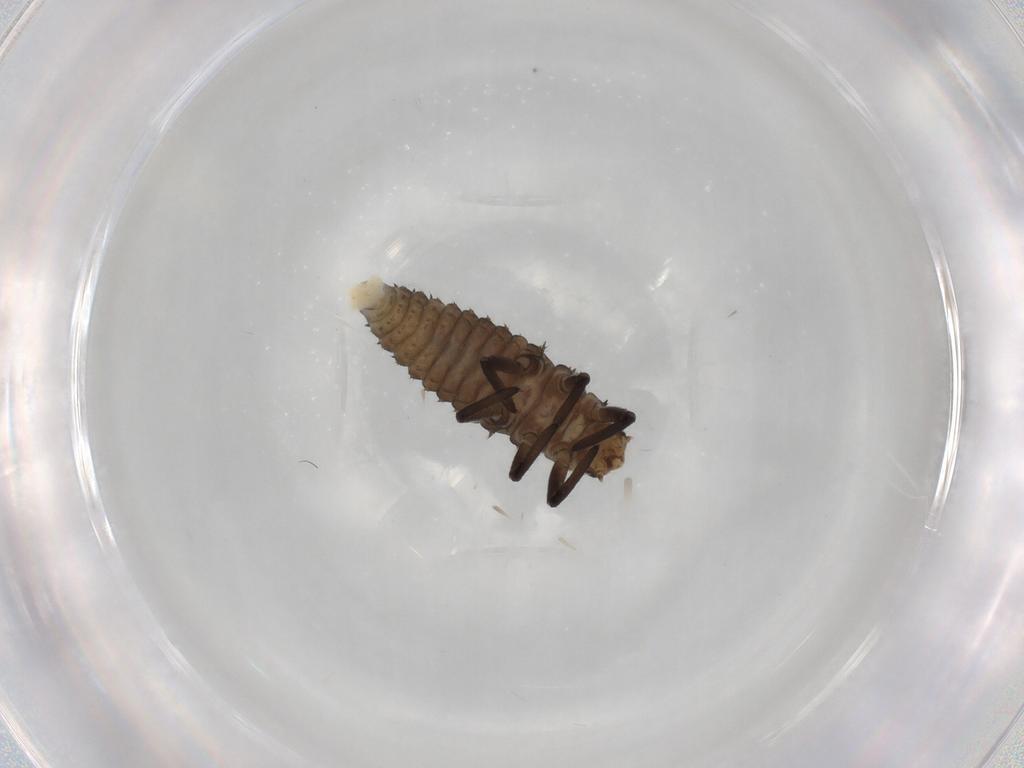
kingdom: Animalia
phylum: Arthropoda
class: Insecta
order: Coleoptera
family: Coccinellidae
